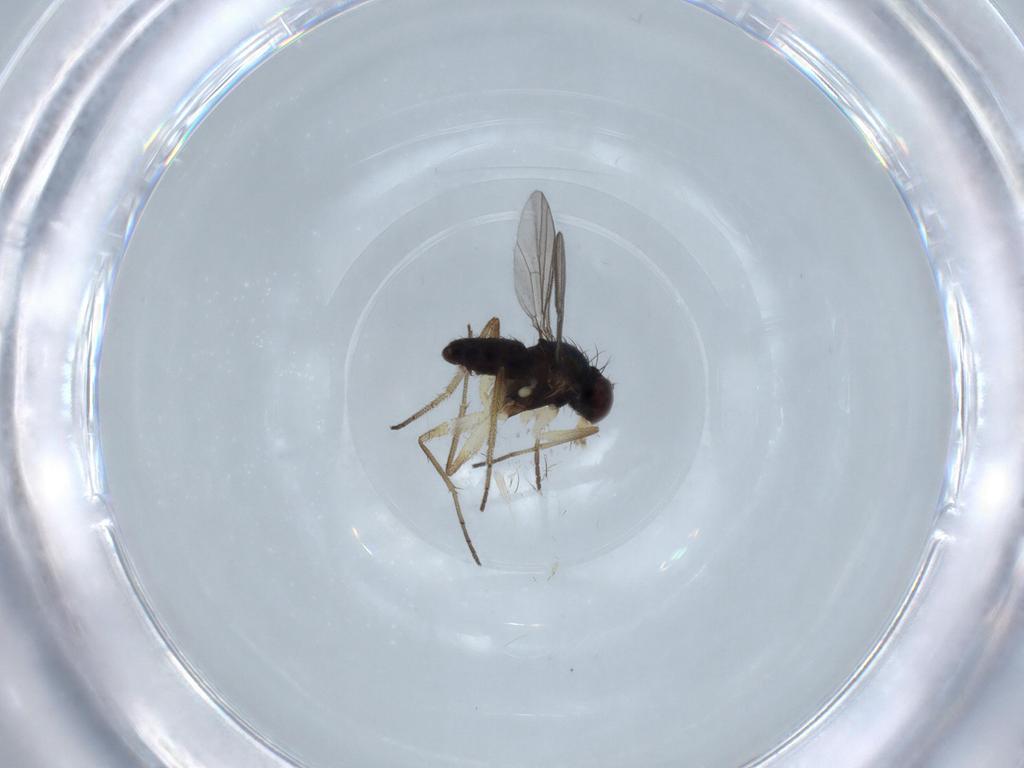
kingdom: Animalia
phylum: Arthropoda
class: Insecta
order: Diptera
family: Dolichopodidae
